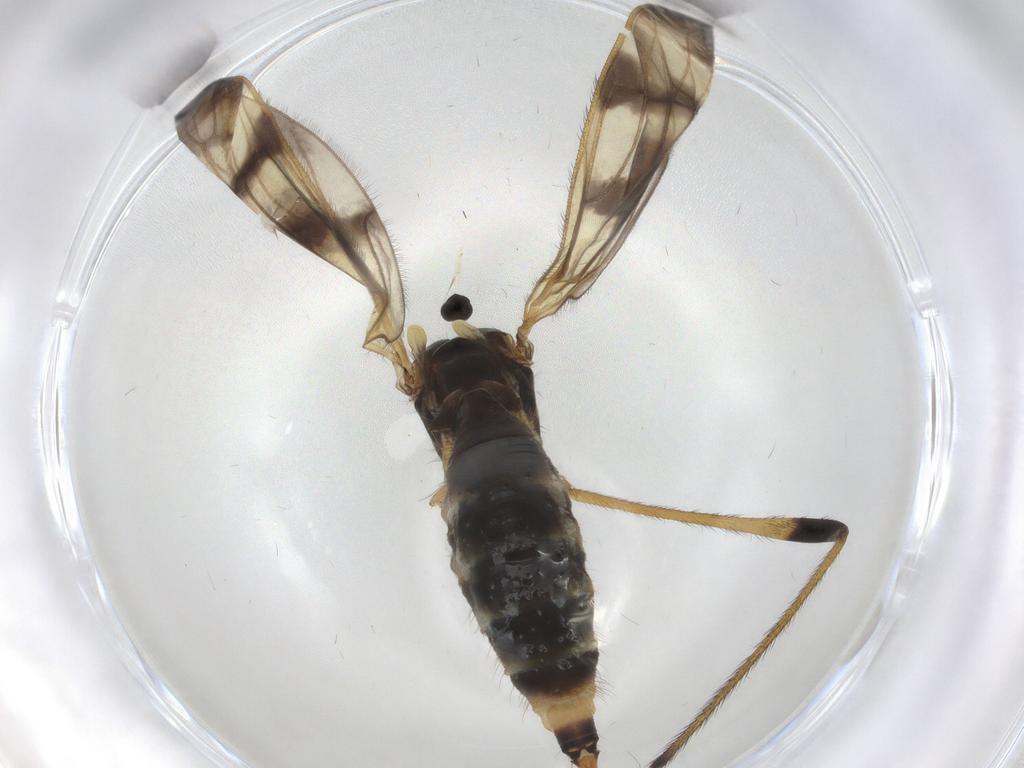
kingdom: Animalia
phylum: Arthropoda
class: Insecta
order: Diptera
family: Limoniidae
